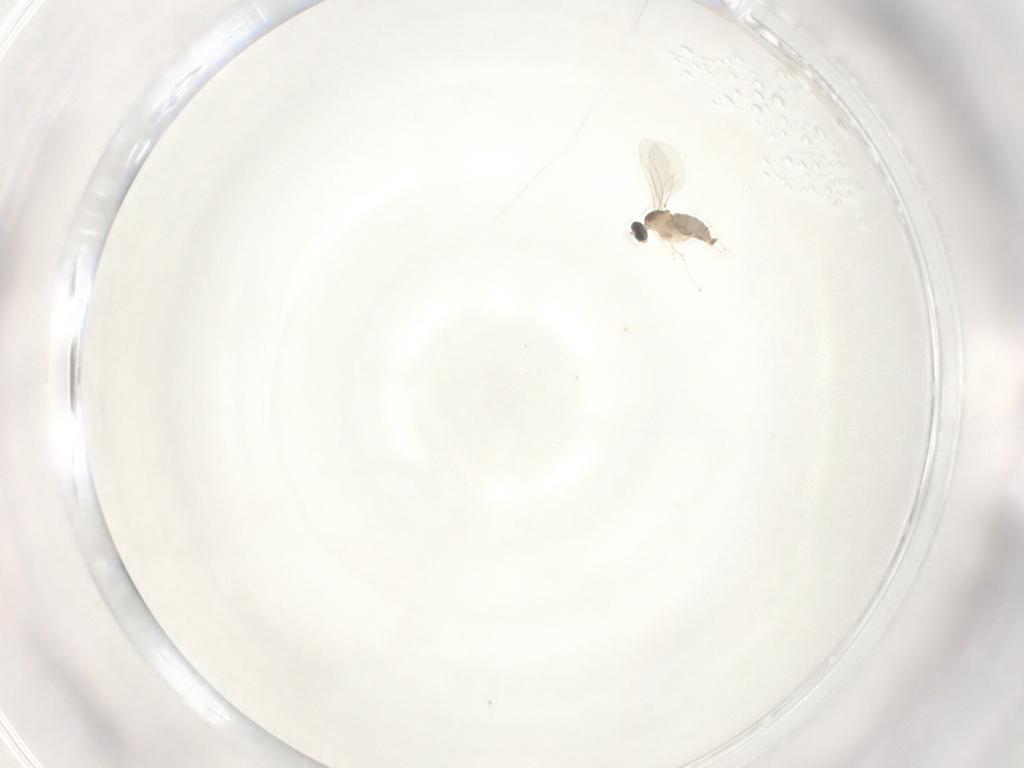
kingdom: Animalia
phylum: Arthropoda
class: Insecta
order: Diptera
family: Cecidomyiidae
